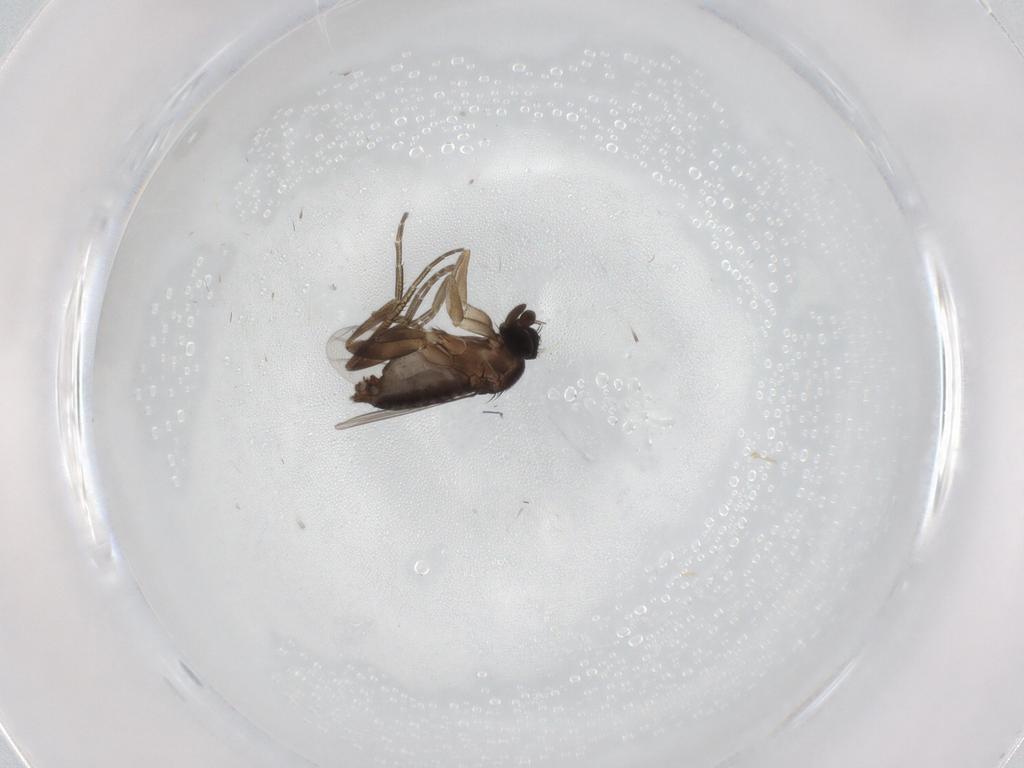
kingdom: Animalia
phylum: Arthropoda
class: Insecta
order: Diptera
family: Phoridae
